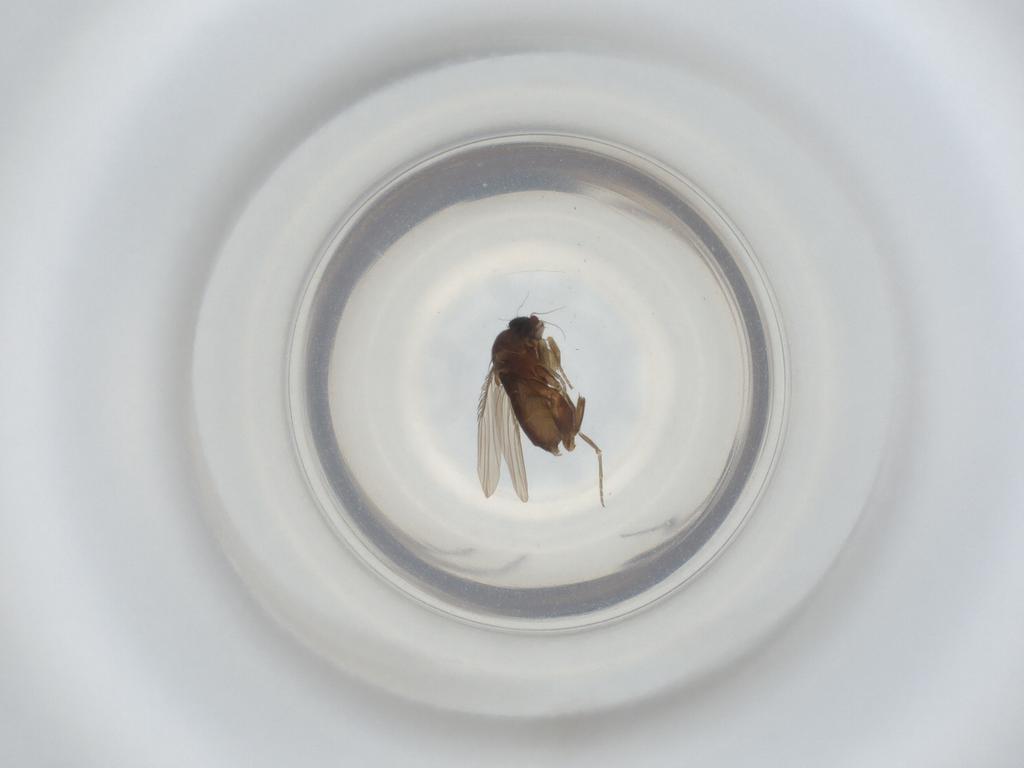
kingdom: Animalia
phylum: Arthropoda
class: Insecta
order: Diptera
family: Phoridae
